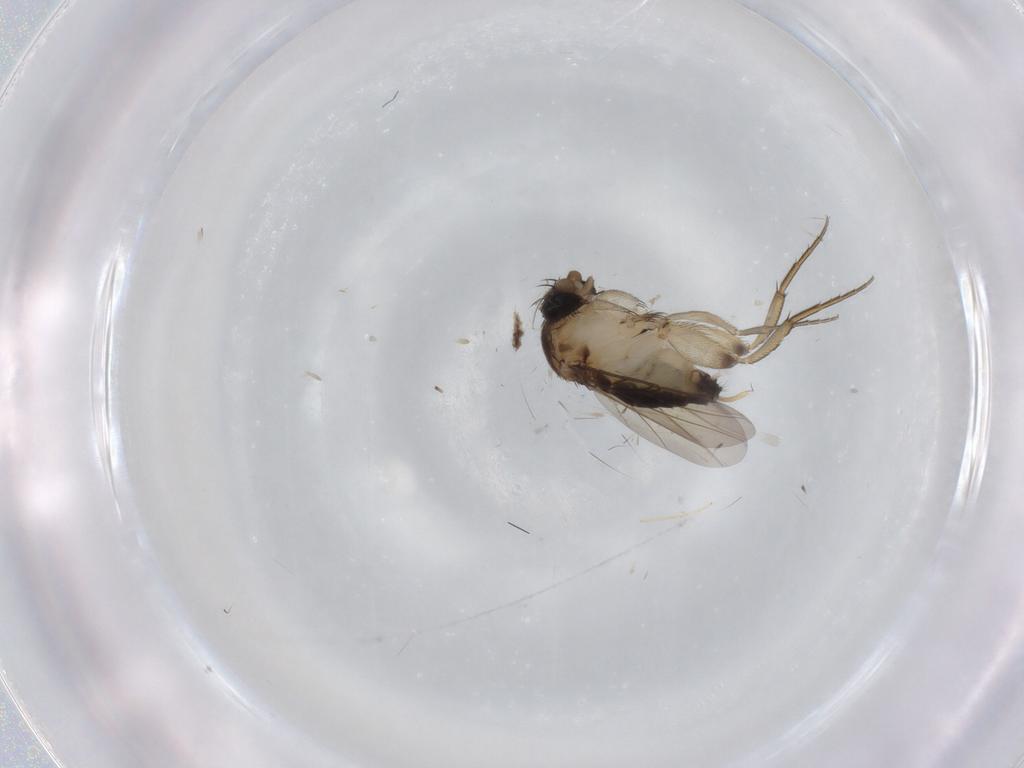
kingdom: Animalia
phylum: Arthropoda
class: Insecta
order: Diptera
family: Phoridae
